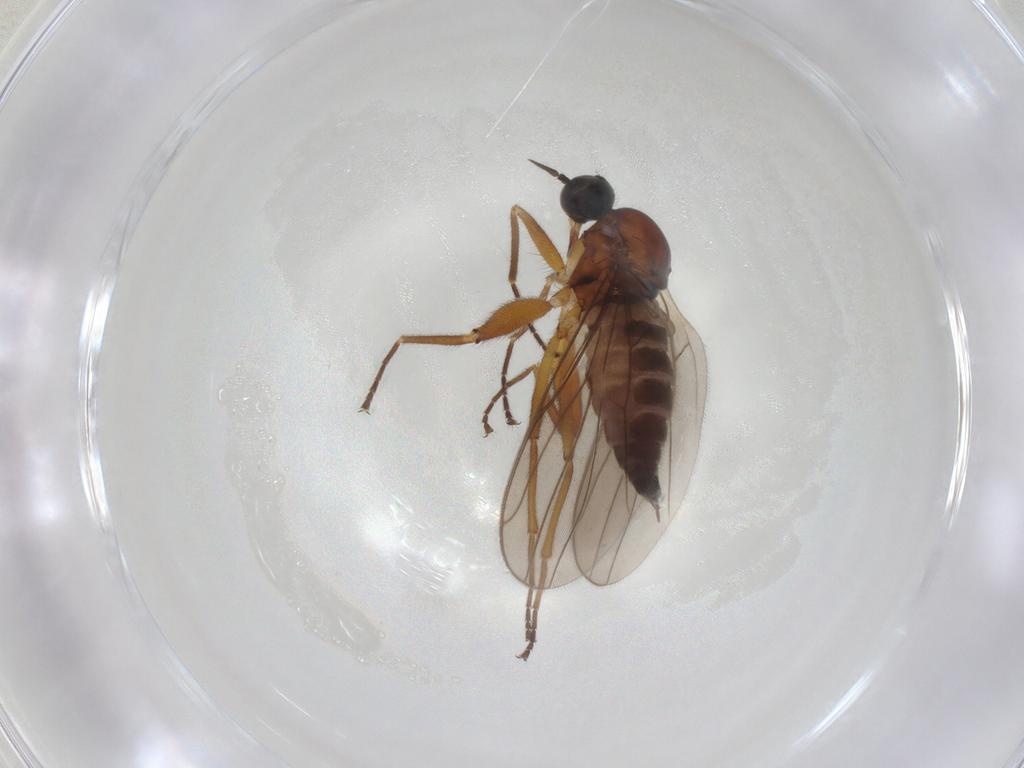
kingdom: Animalia
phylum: Arthropoda
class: Insecta
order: Diptera
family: Hybotidae
